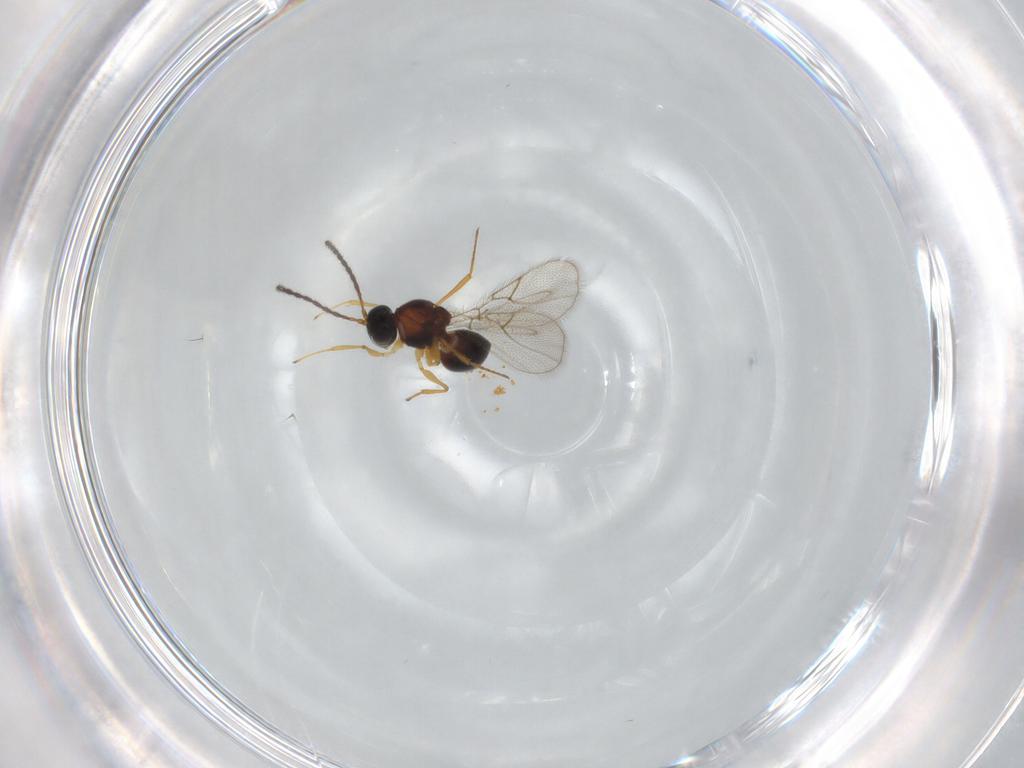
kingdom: Animalia
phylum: Arthropoda
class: Insecta
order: Hymenoptera
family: Figitidae
